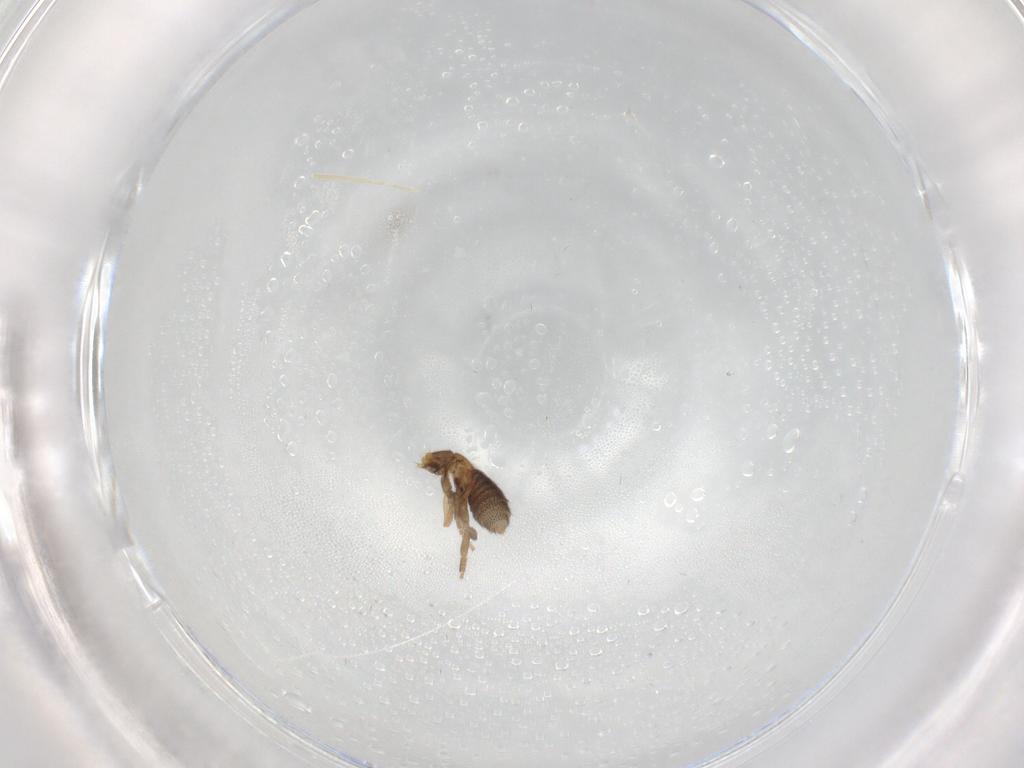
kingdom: Animalia
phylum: Arthropoda
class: Insecta
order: Diptera
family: Phoridae
